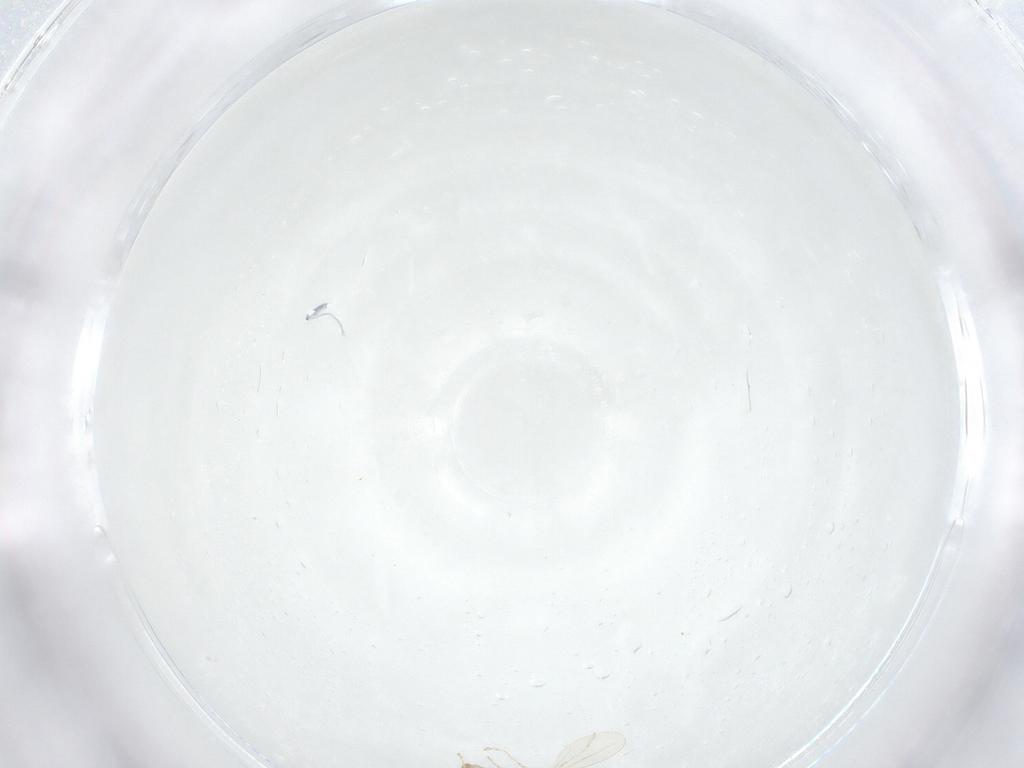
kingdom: Animalia
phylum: Arthropoda
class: Insecta
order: Diptera
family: Cecidomyiidae
